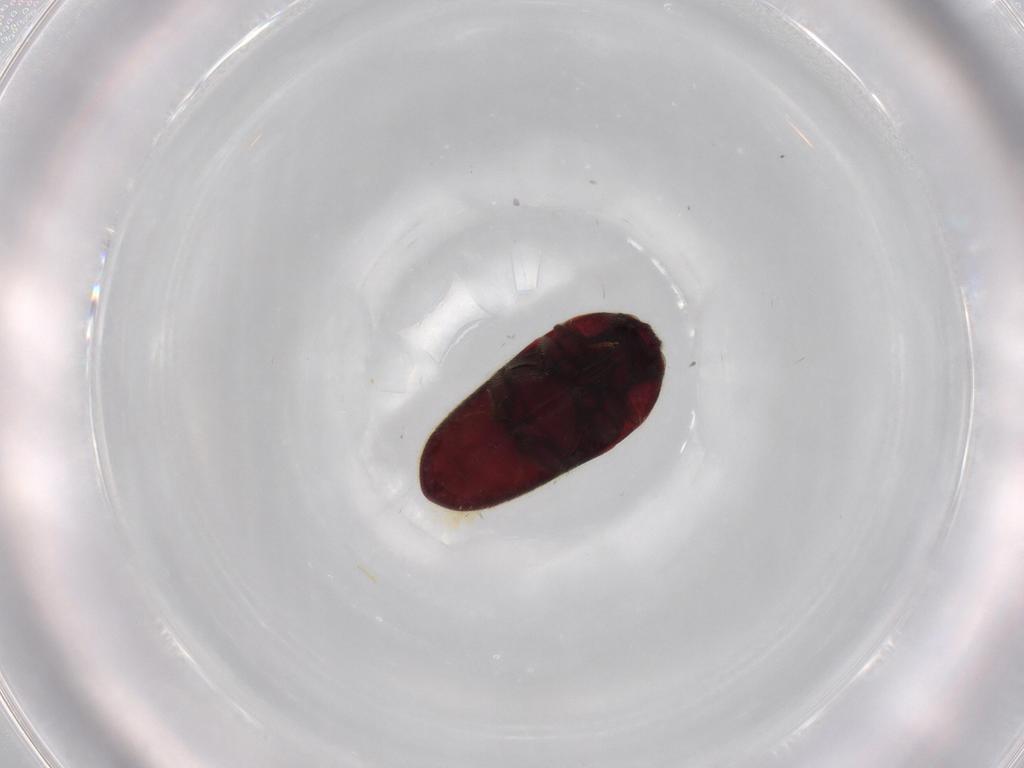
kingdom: Animalia
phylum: Arthropoda
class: Insecta
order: Coleoptera
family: Throscidae
